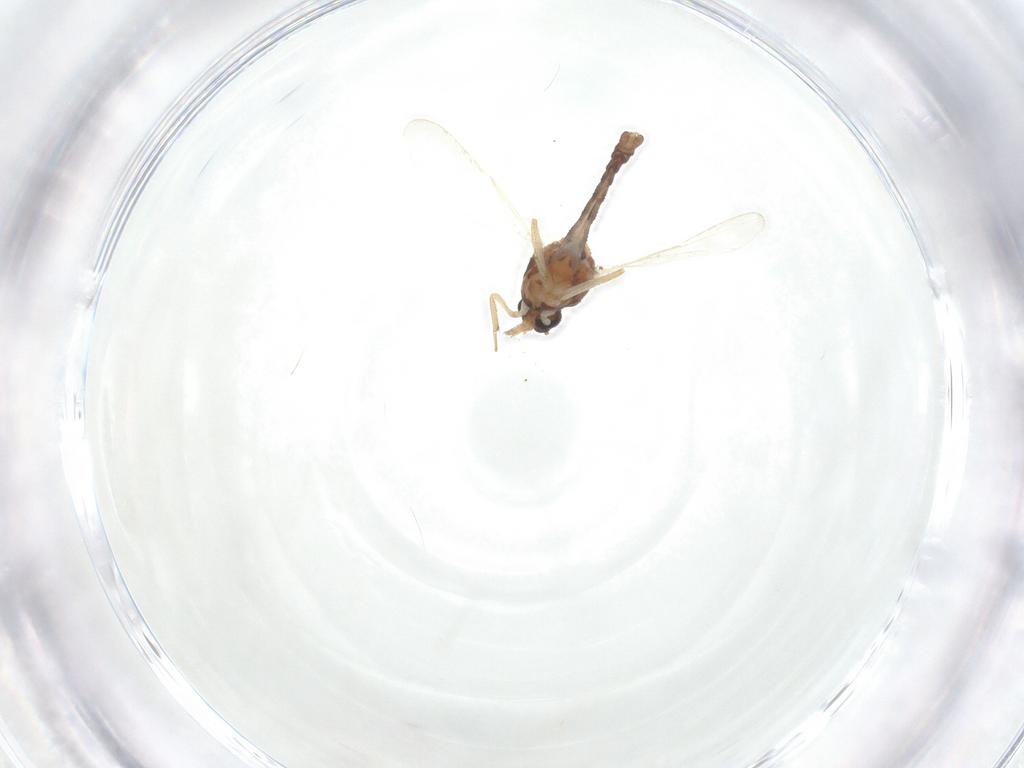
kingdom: Animalia
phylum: Arthropoda
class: Insecta
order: Diptera
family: Ceratopogonidae
